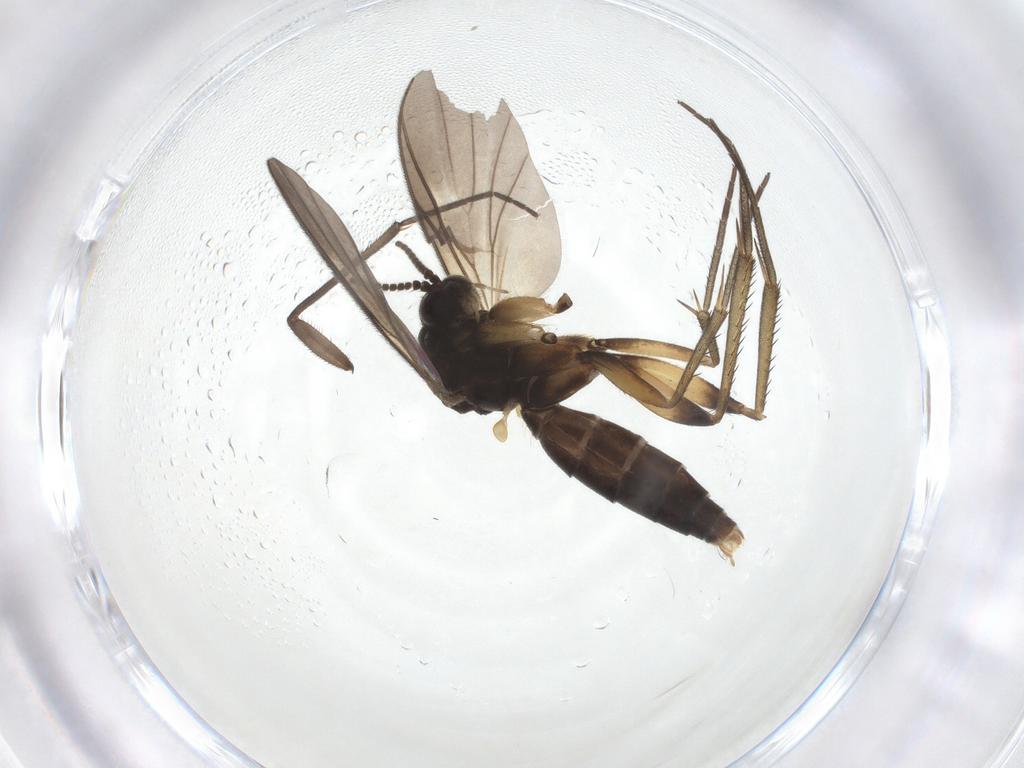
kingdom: Animalia
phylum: Arthropoda
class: Insecta
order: Diptera
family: Sciaridae
